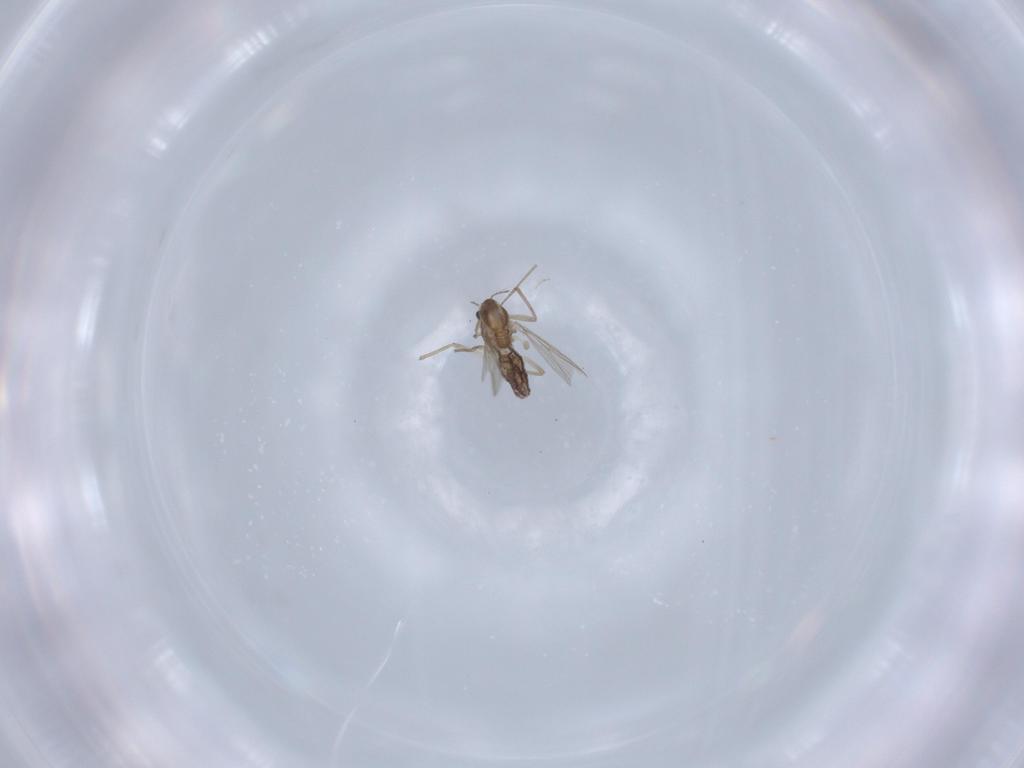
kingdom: Animalia
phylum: Arthropoda
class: Insecta
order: Diptera
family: Chironomidae
